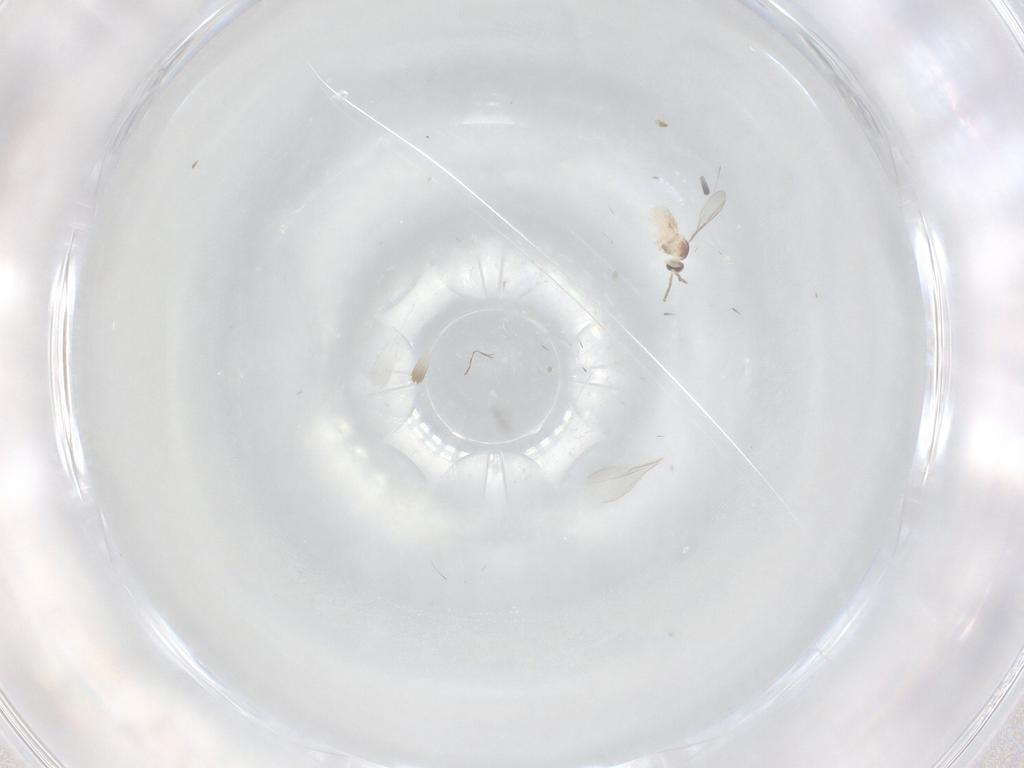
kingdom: Animalia
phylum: Arthropoda
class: Insecta
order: Diptera
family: Cecidomyiidae
